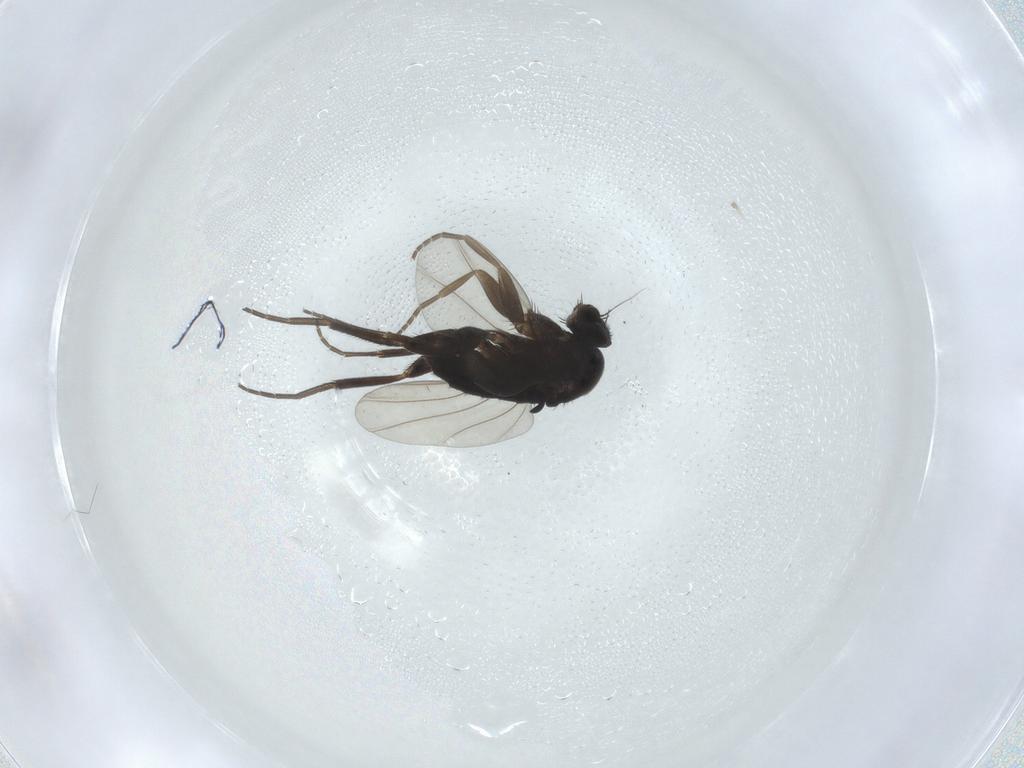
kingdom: Animalia
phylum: Arthropoda
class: Insecta
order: Diptera
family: Phoridae
